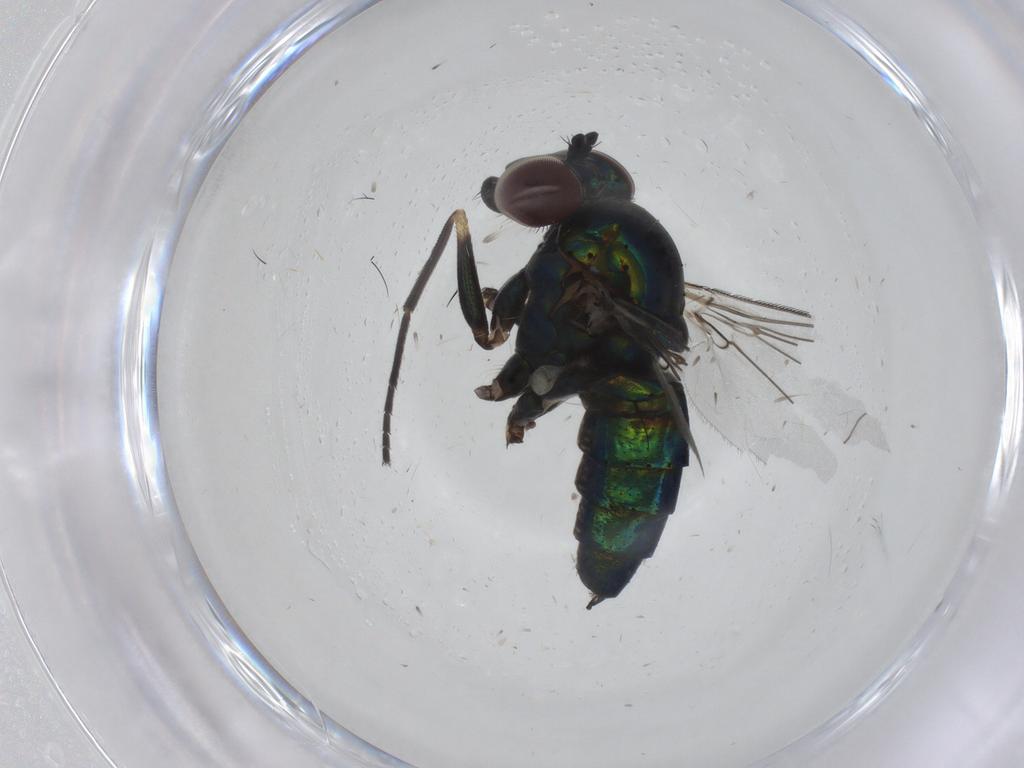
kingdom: Animalia
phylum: Arthropoda
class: Insecta
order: Diptera
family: Dolichopodidae
